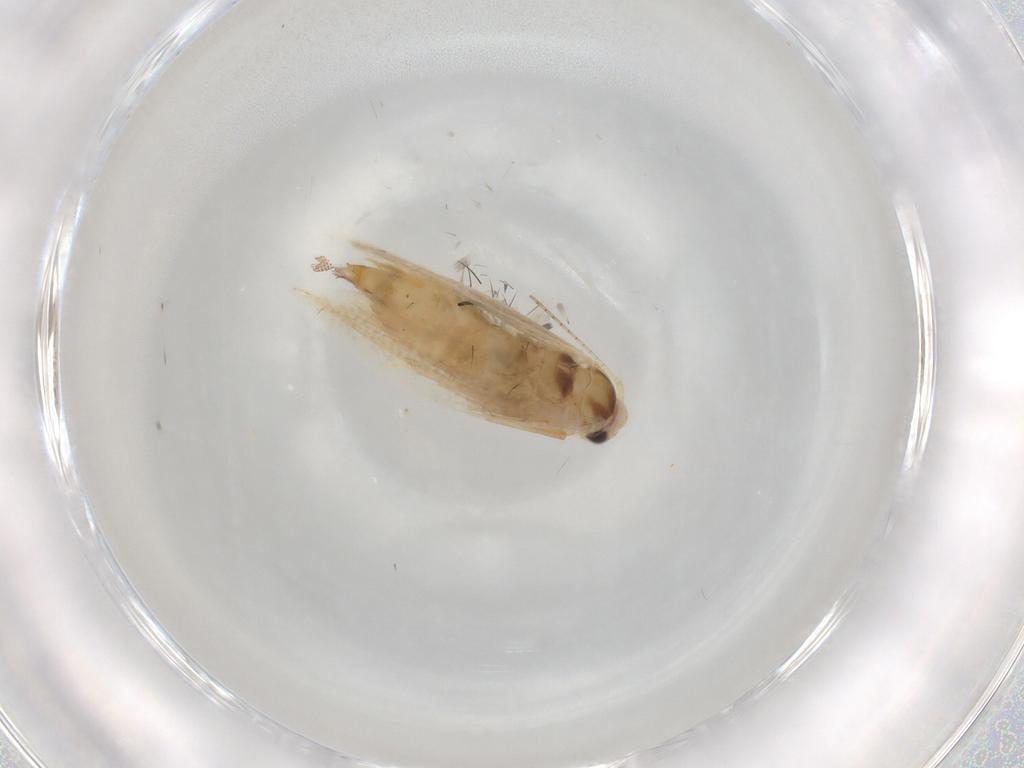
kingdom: Animalia
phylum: Arthropoda
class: Insecta
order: Lepidoptera
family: Bucculatricidae
